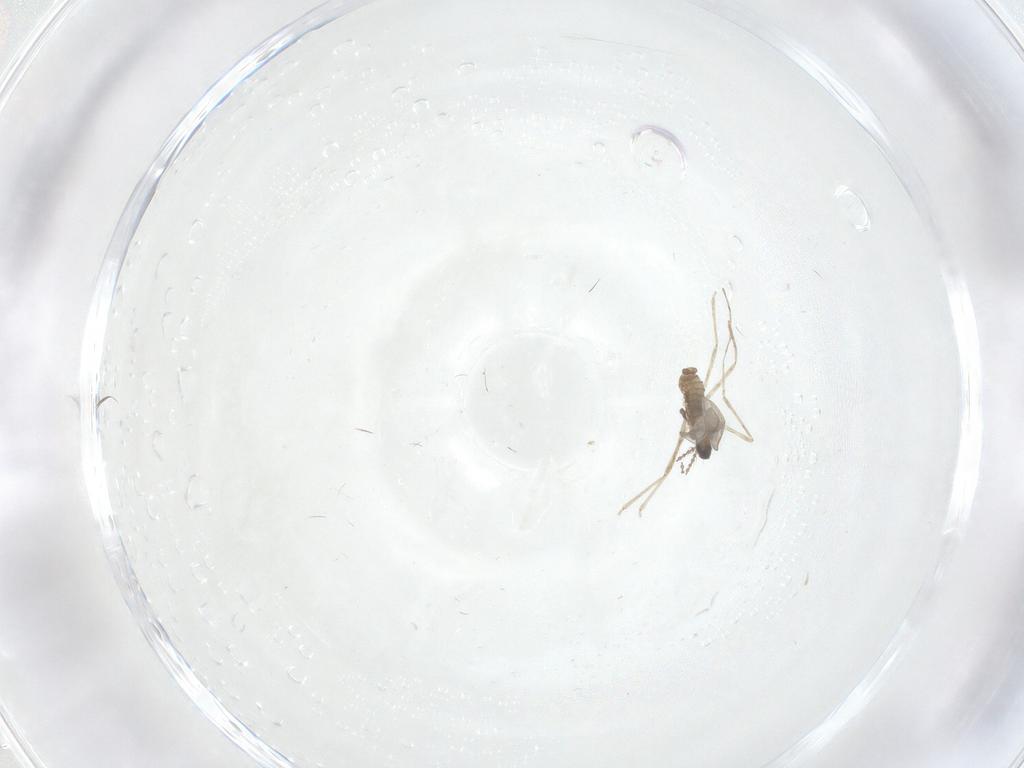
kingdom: Animalia
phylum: Arthropoda
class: Insecta
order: Diptera
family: Cecidomyiidae
